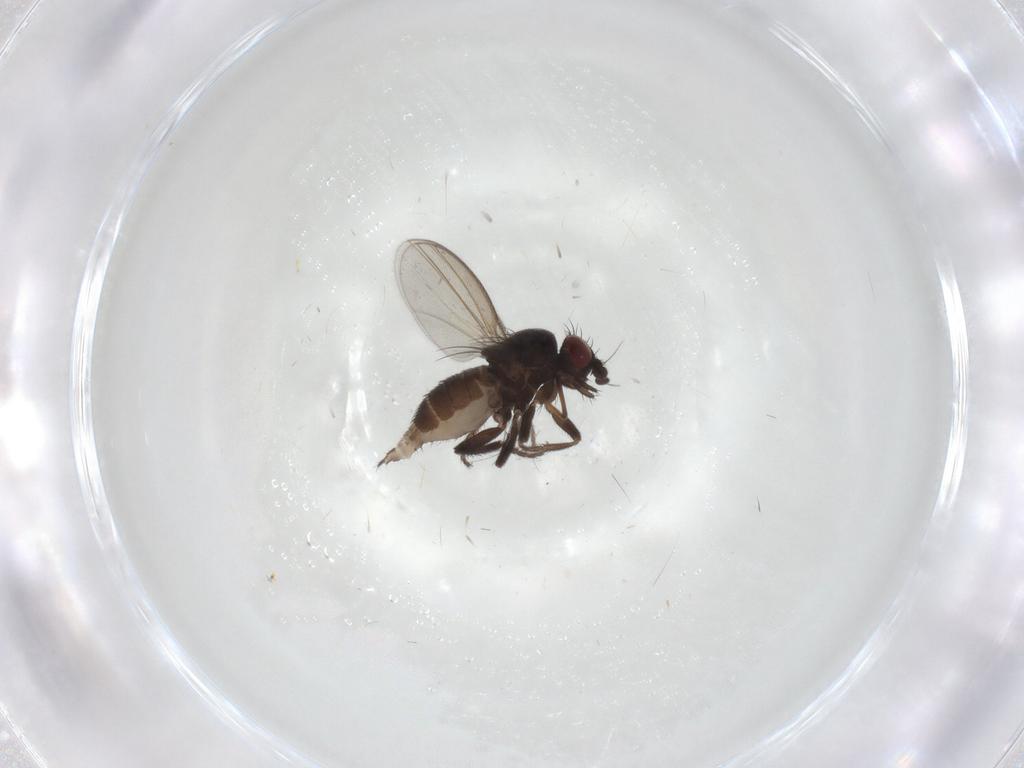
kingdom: Animalia
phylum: Arthropoda
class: Insecta
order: Diptera
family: Milichiidae
